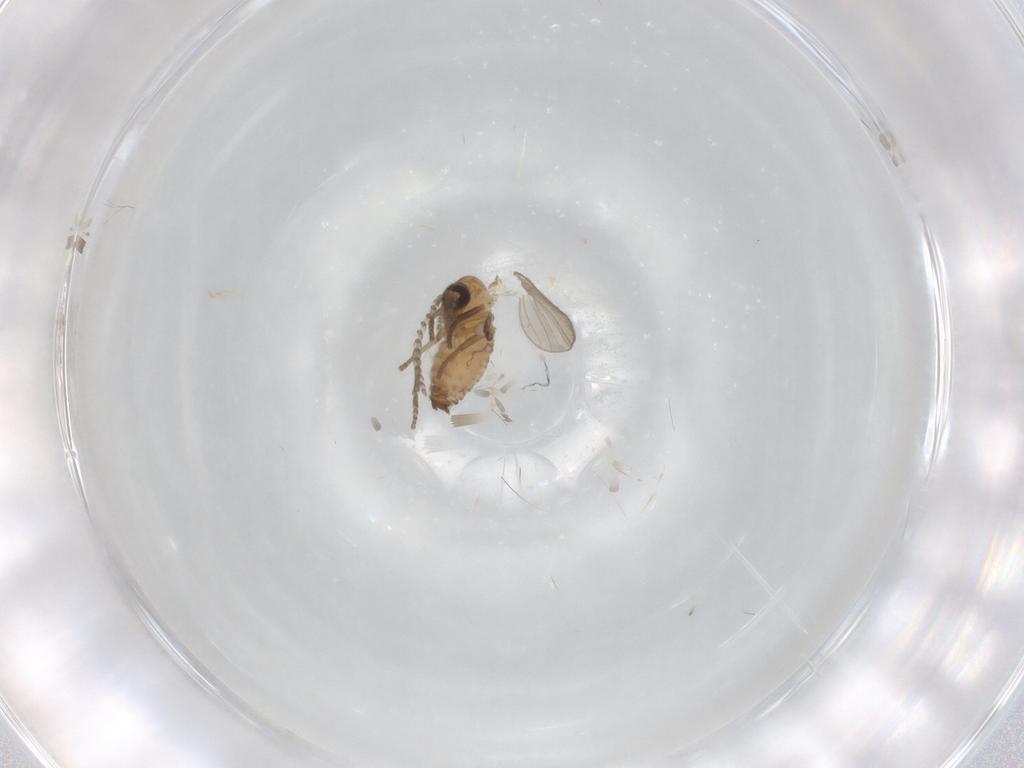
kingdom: Animalia
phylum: Arthropoda
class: Insecta
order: Diptera
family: Psychodidae
